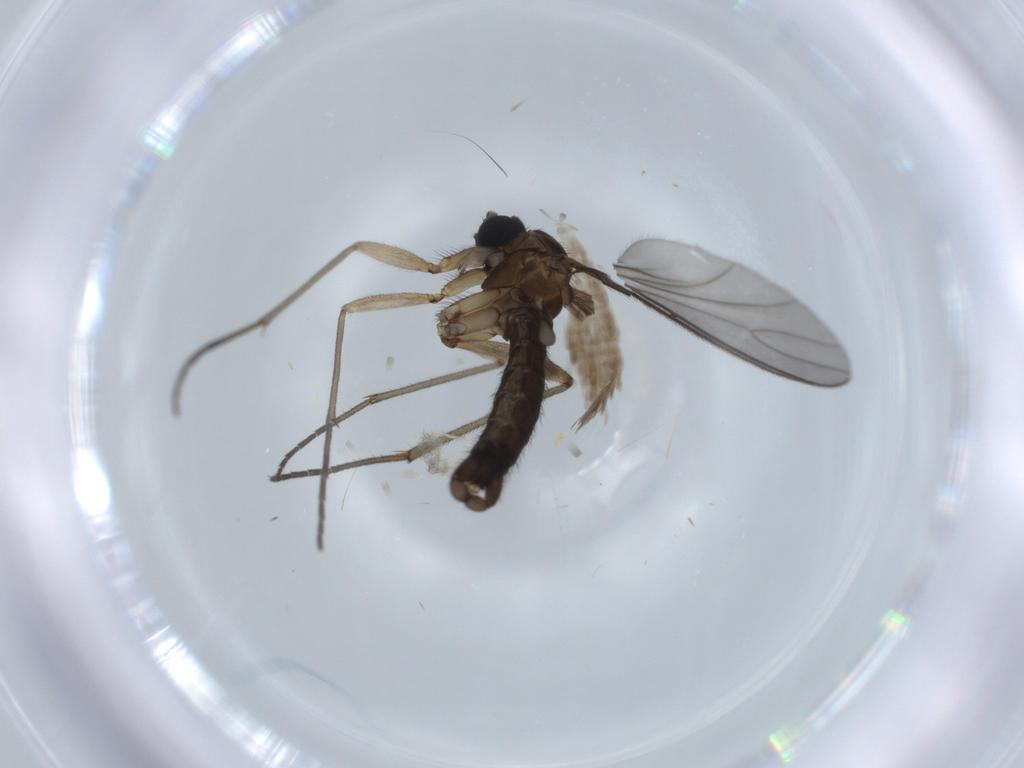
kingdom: Animalia
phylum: Arthropoda
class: Insecta
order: Diptera
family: Sciaridae
